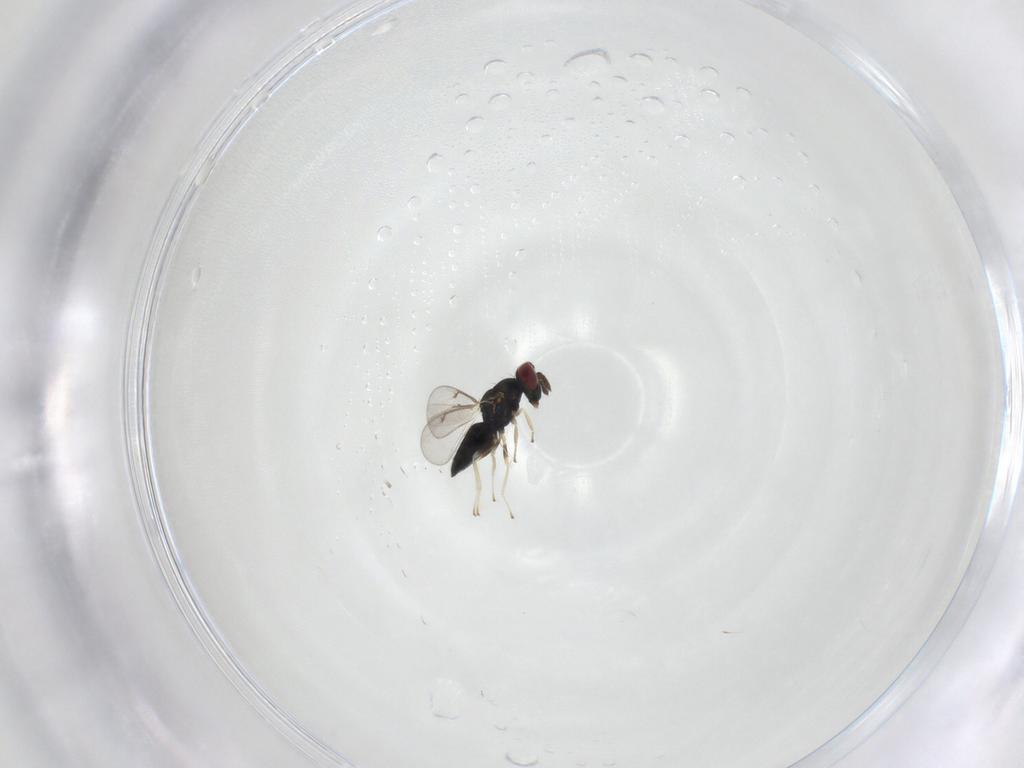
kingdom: Animalia
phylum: Arthropoda
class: Insecta
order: Hymenoptera
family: Eulophidae
